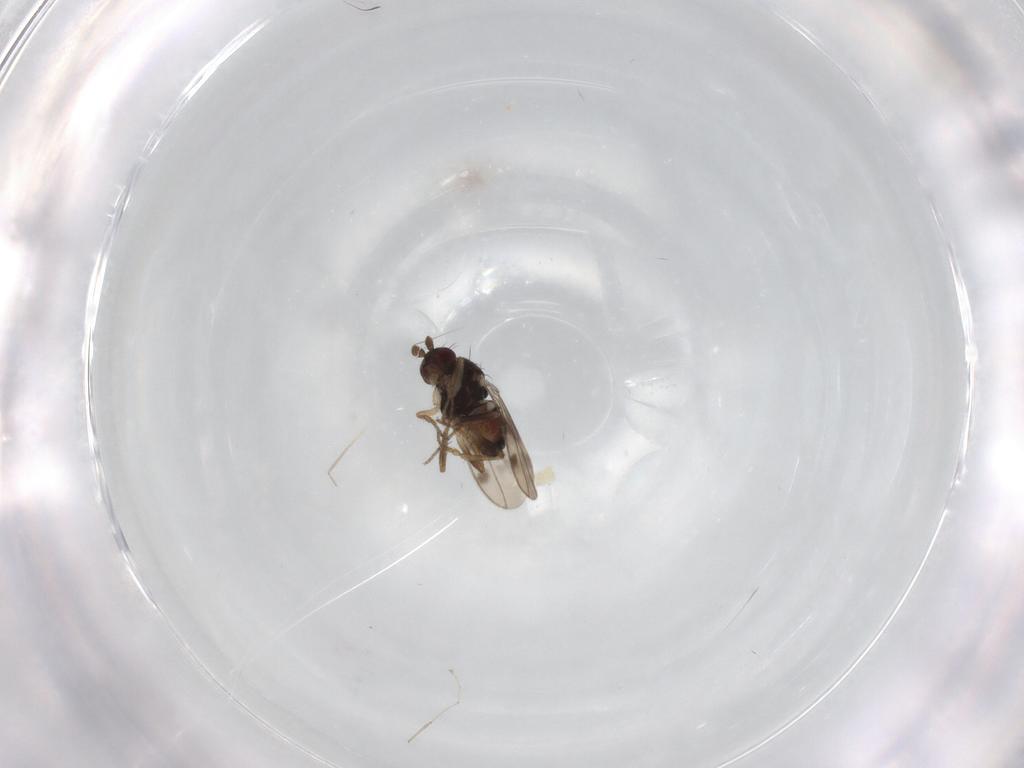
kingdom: Animalia
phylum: Arthropoda
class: Insecta
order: Diptera
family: Sphaeroceridae
